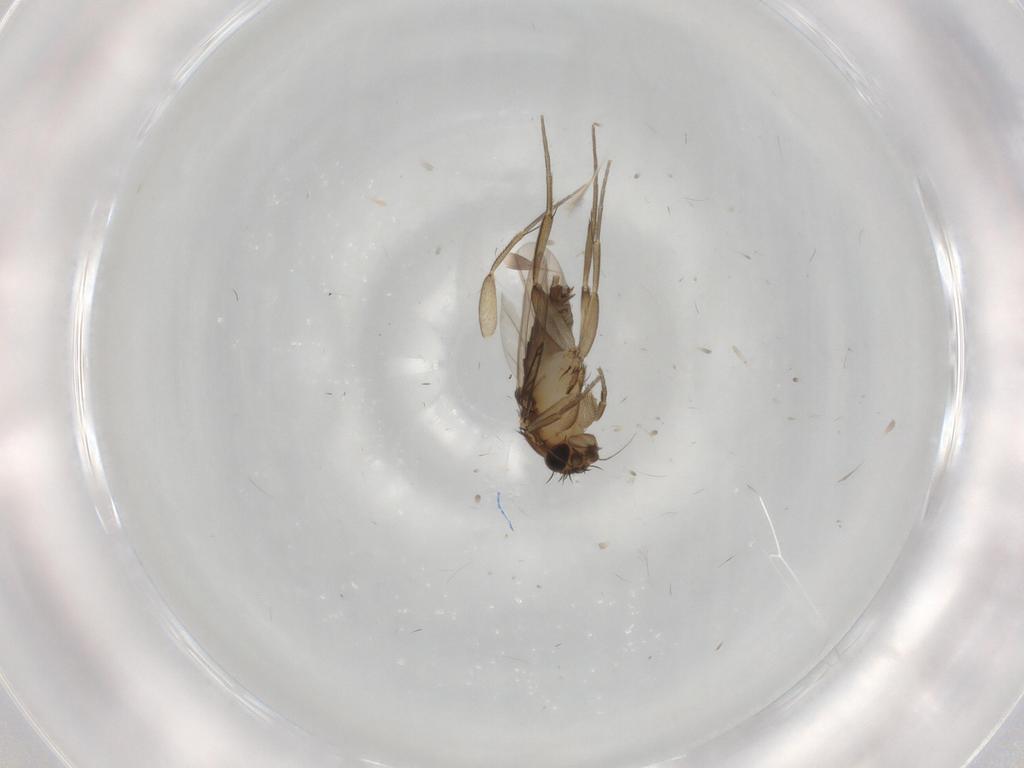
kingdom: Animalia
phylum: Arthropoda
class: Insecta
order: Diptera
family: Phoridae
